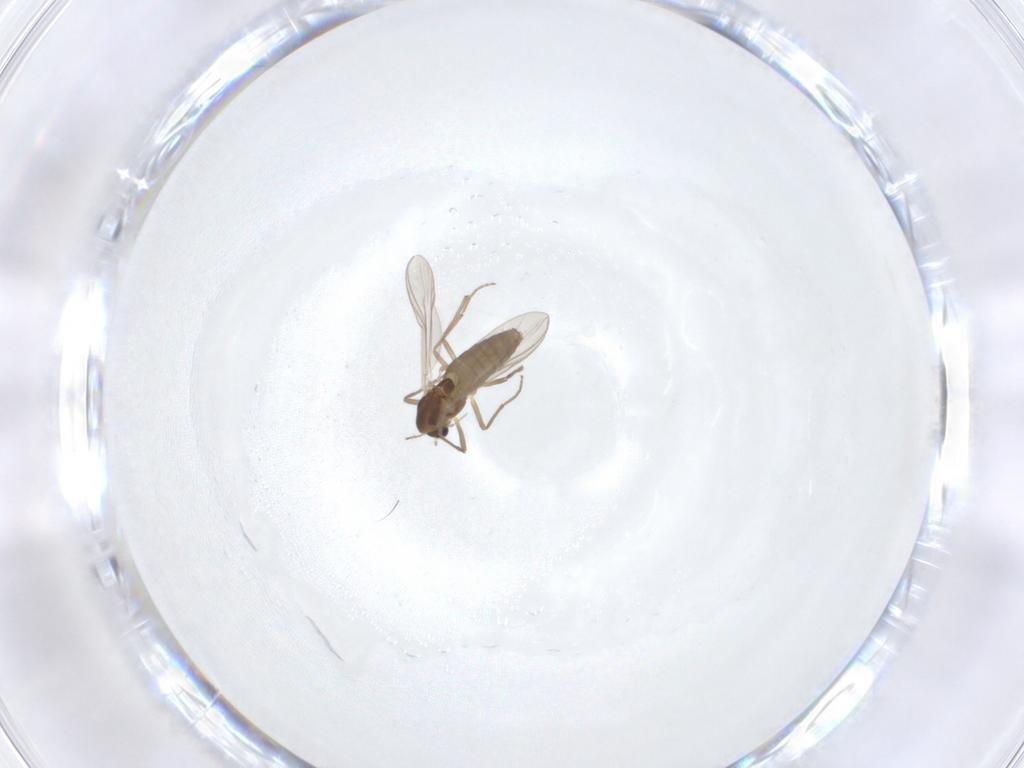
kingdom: Animalia
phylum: Arthropoda
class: Insecta
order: Diptera
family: Chironomidae
